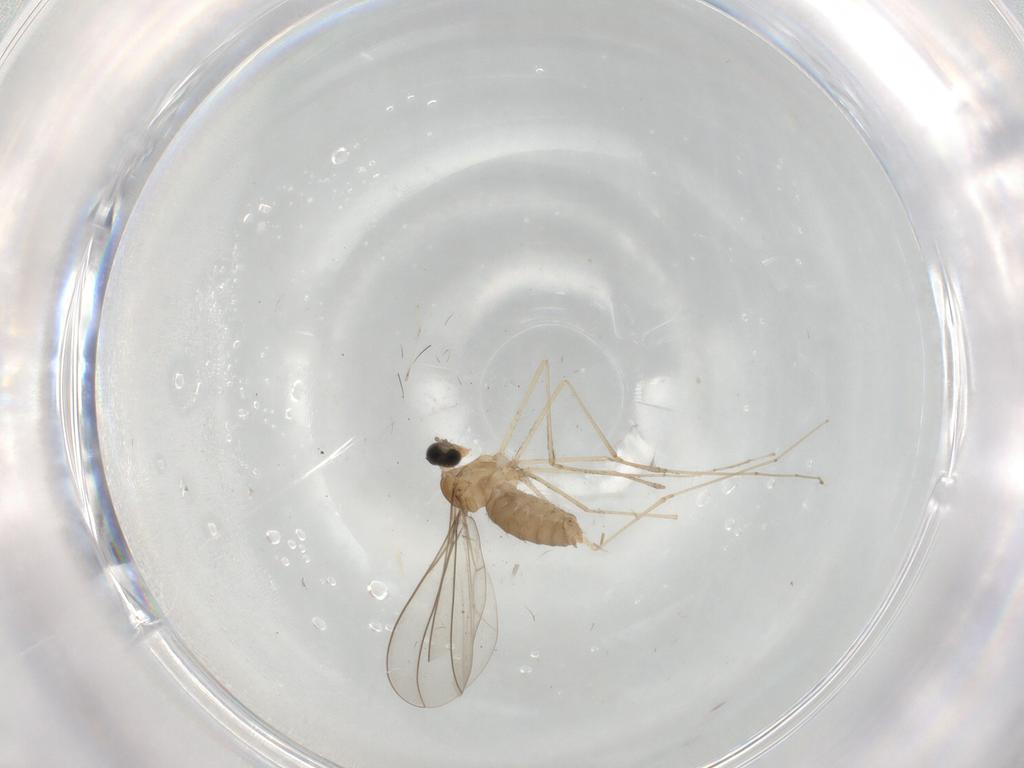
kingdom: Animalia
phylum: Arthropoda
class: Insecta
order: Diptera
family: Cecidomyiidae
